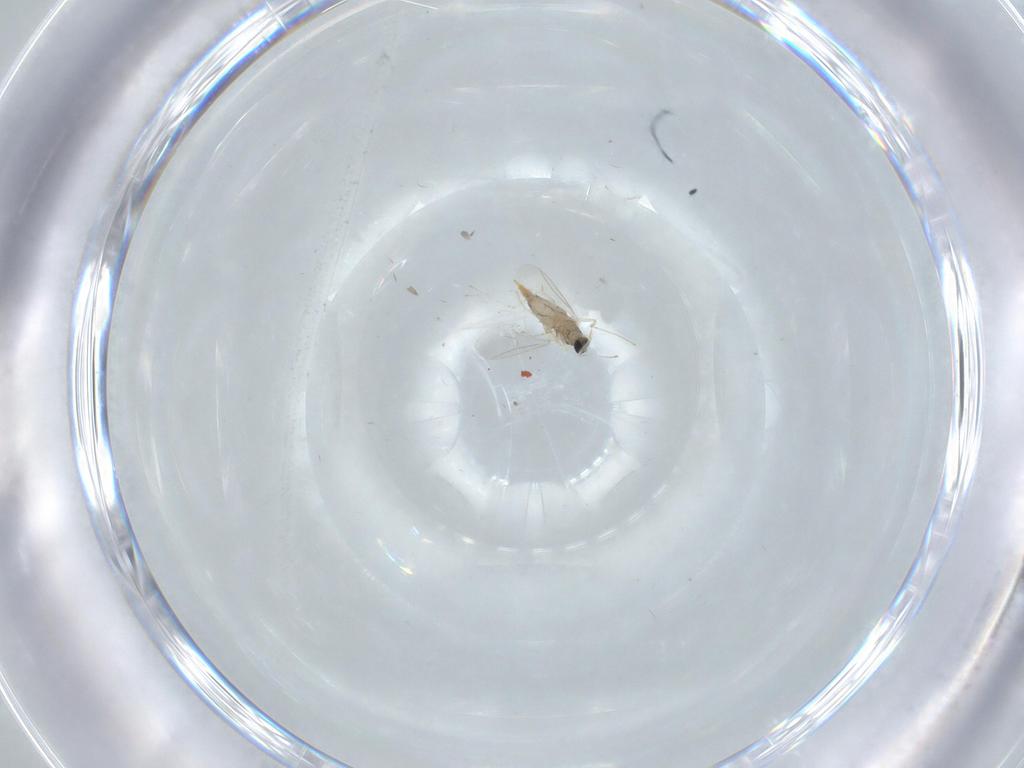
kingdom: Animalia
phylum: Arthropoda
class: Insecta
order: Diptera
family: Cecidomyiidae
